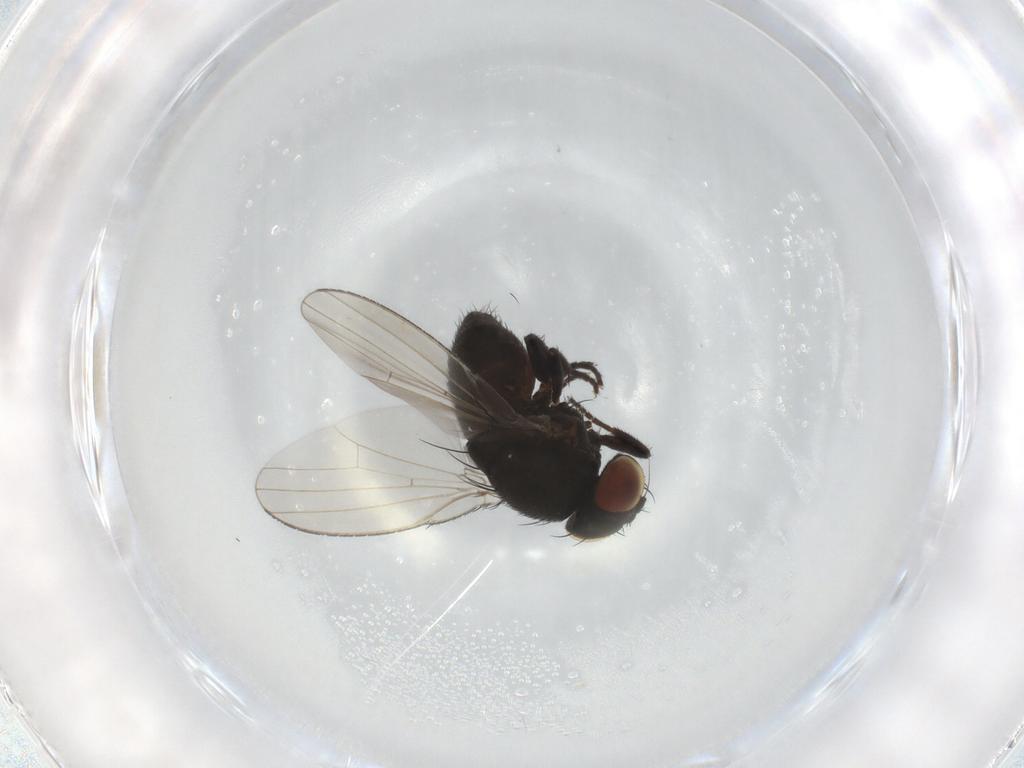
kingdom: Animalia
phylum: Arthropoda
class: Insecta
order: Diptera
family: Milichiidae
